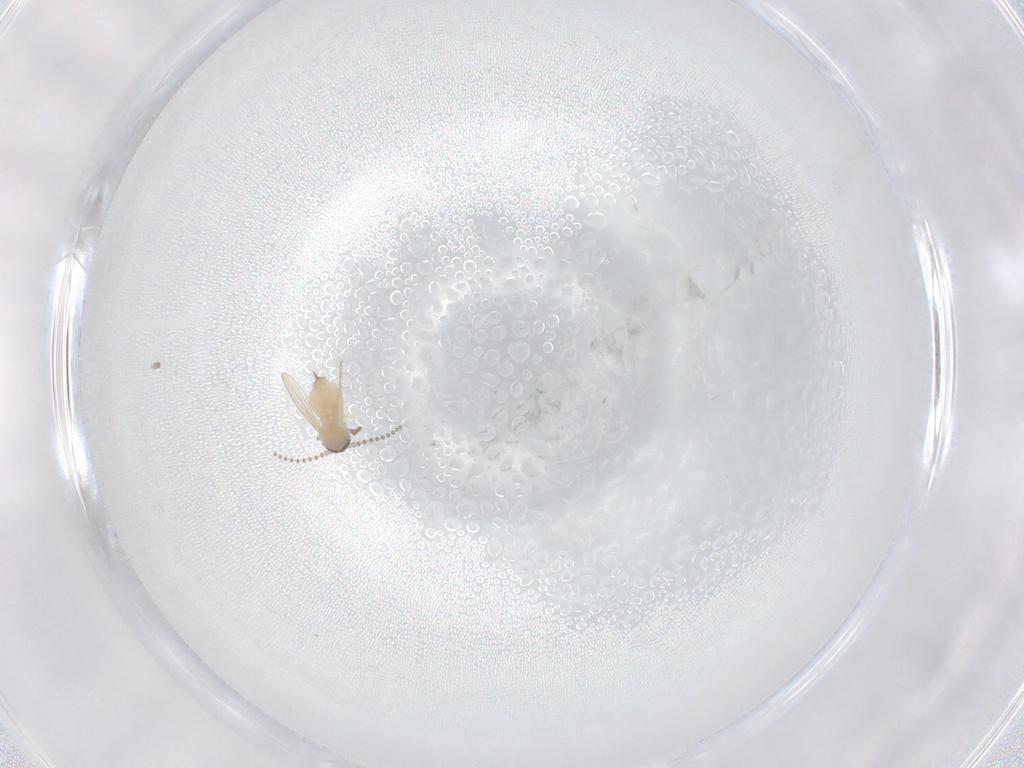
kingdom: Animalia
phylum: Arthropoda
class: Insecta
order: Diptera
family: Psychodidae
